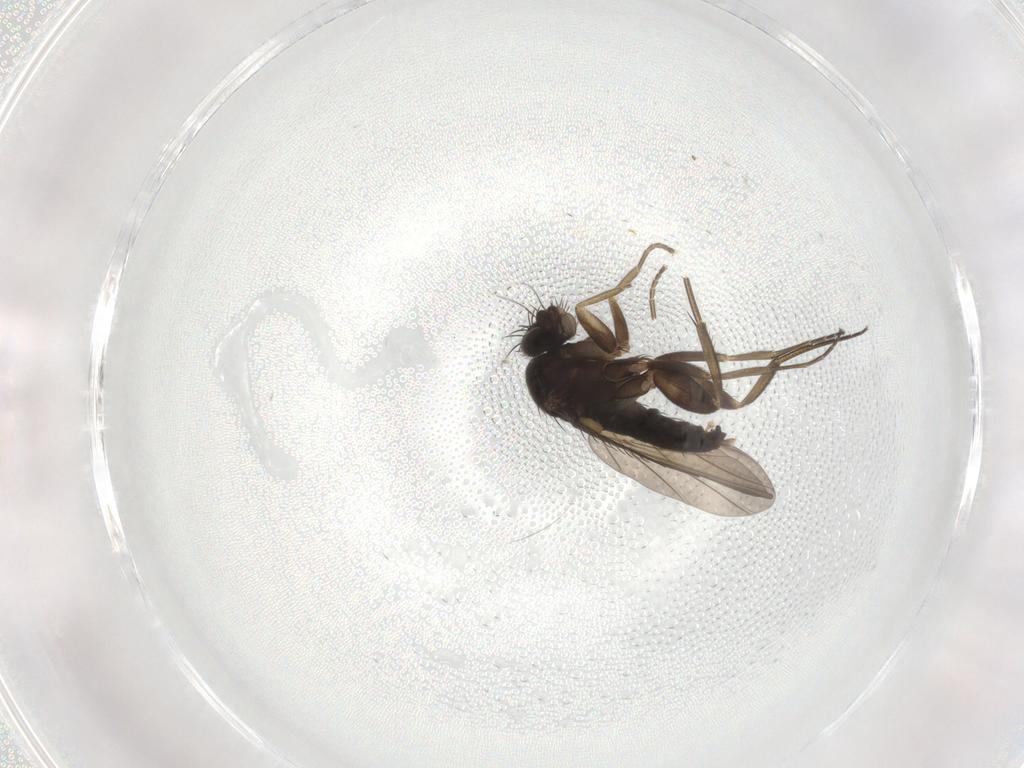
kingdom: Animalia
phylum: Arthropoda
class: Insecta
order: Diptera
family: Phoridae
